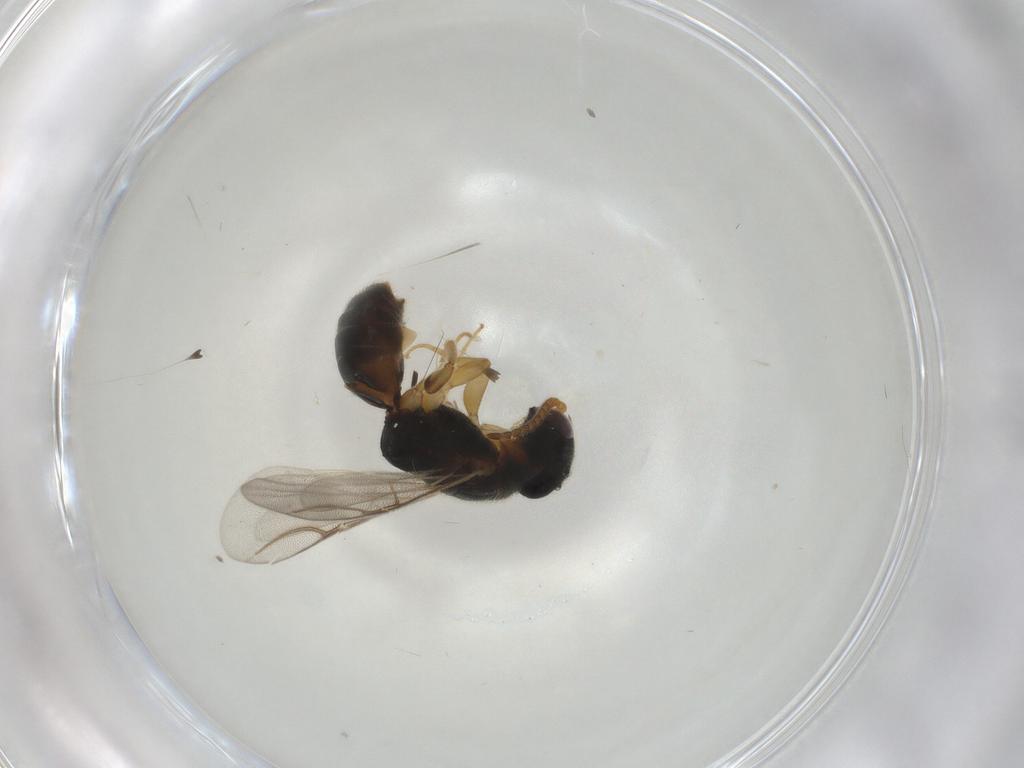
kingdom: Animalia
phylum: Arthropoda
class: Insecta
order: Hymenoptera
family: Bethylidae
